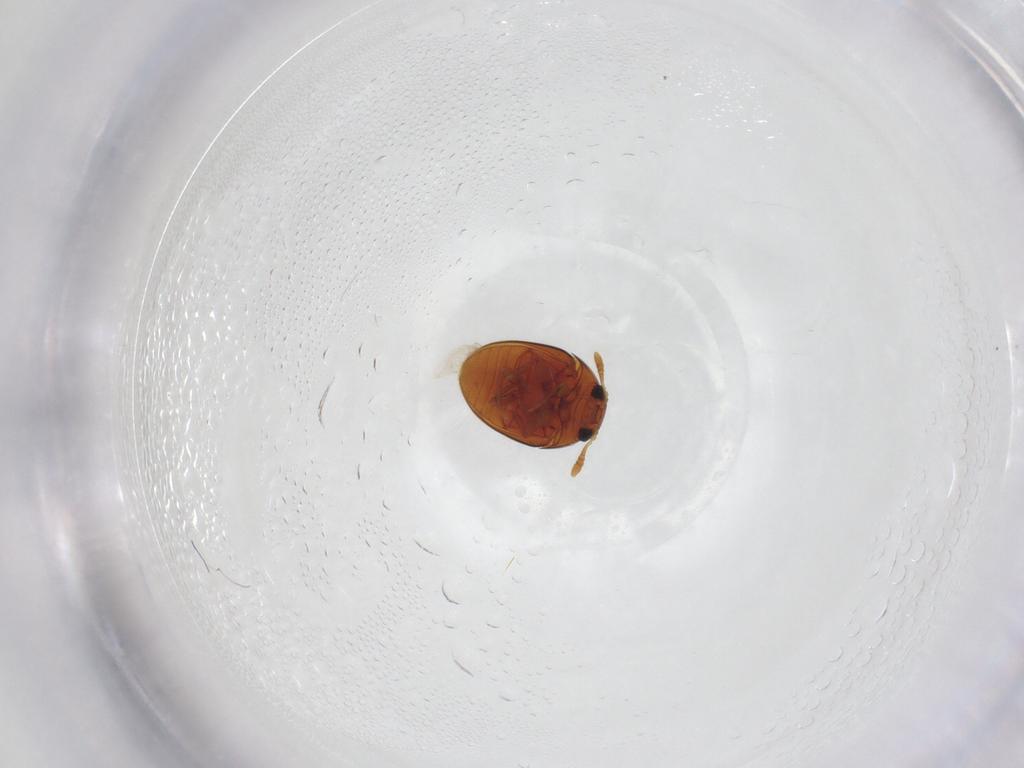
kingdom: Animalia
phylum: Arthropoda
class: Insecta
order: Coleoptera
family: Phalacridae
